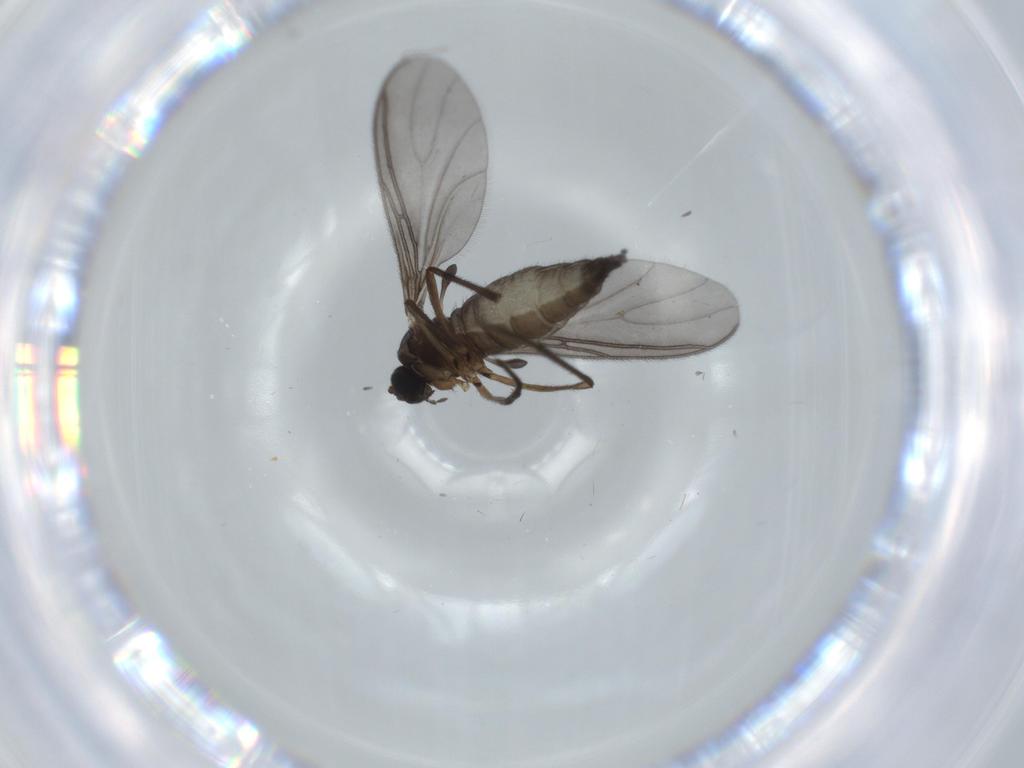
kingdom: Animalia
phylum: Arthropoda
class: Insecta
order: Diptera
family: Sciaridae
